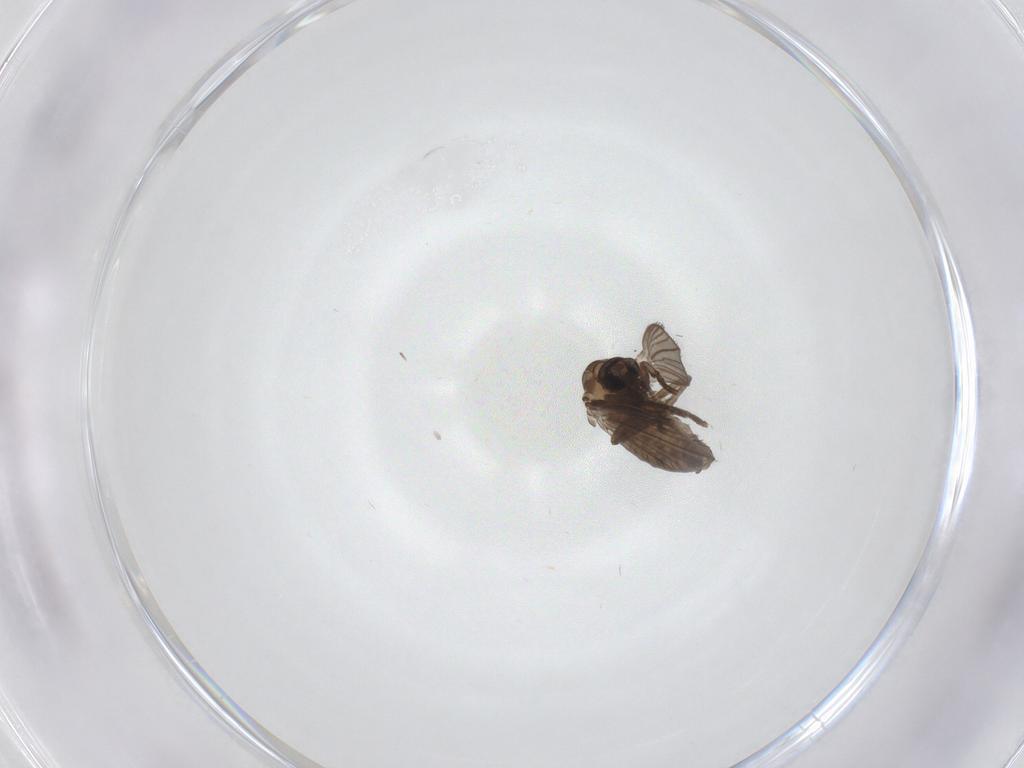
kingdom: Animalia
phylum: Arthropoda
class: Insecta
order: Diptera
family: Psychodidae
